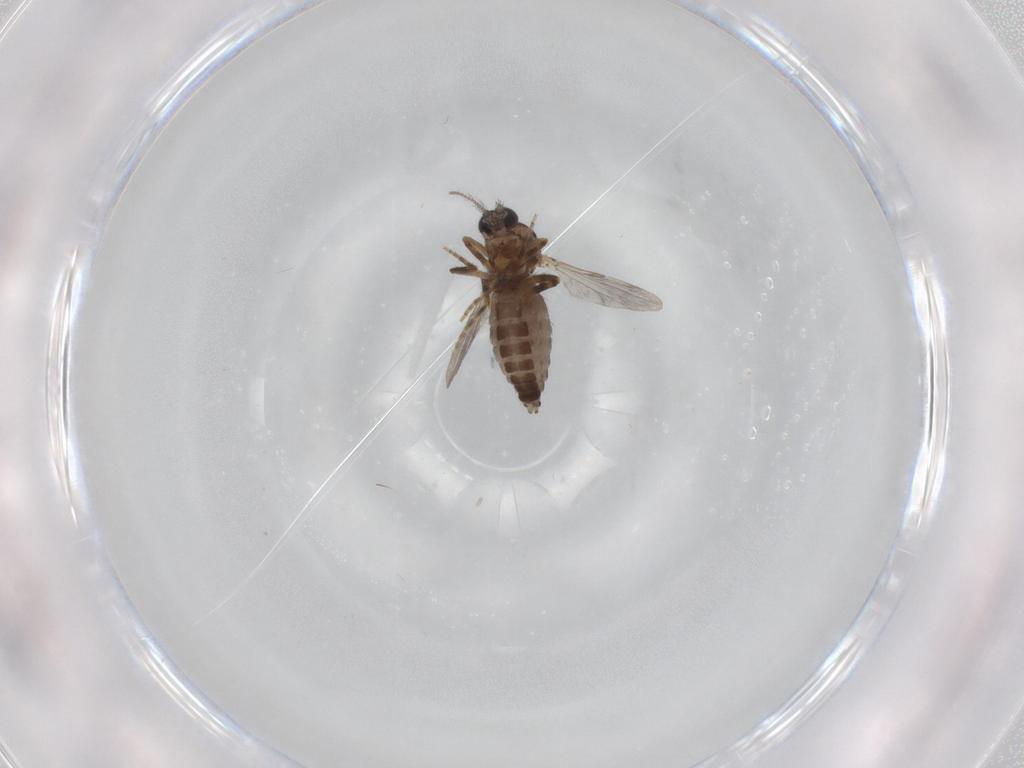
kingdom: Animalia
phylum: Arthropoda
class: Insecta
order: Diptera
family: Ceratopogonidae
